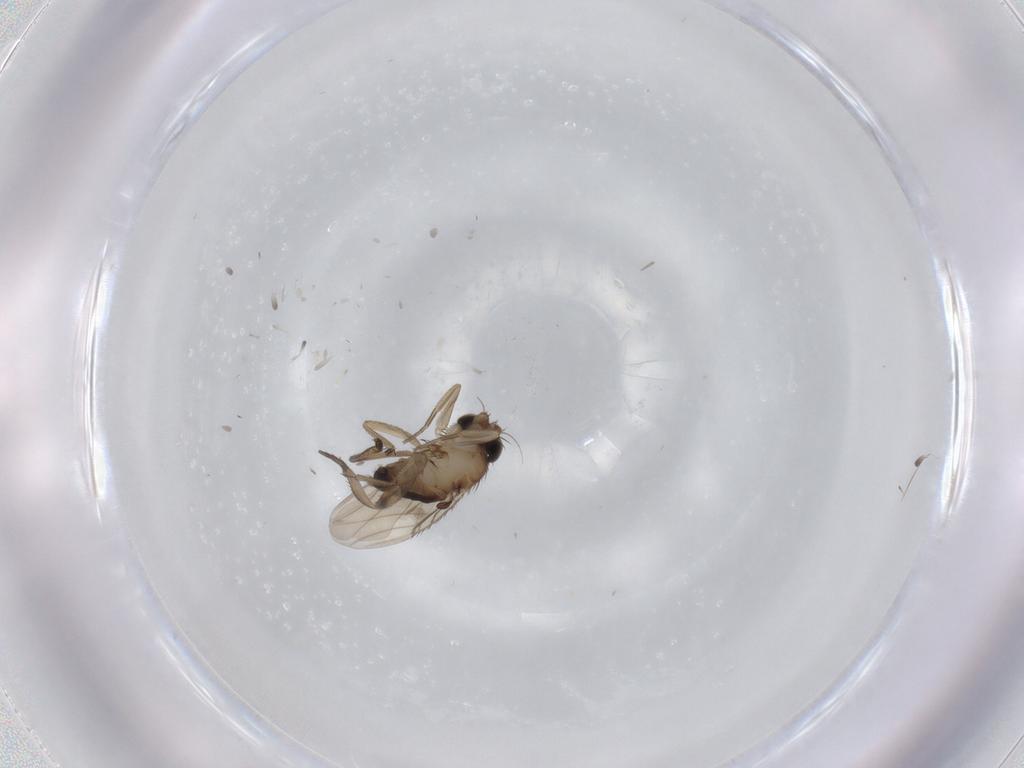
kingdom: Animalia
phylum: Arthropoda
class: Insecta
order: Diptera
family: Phoridae
